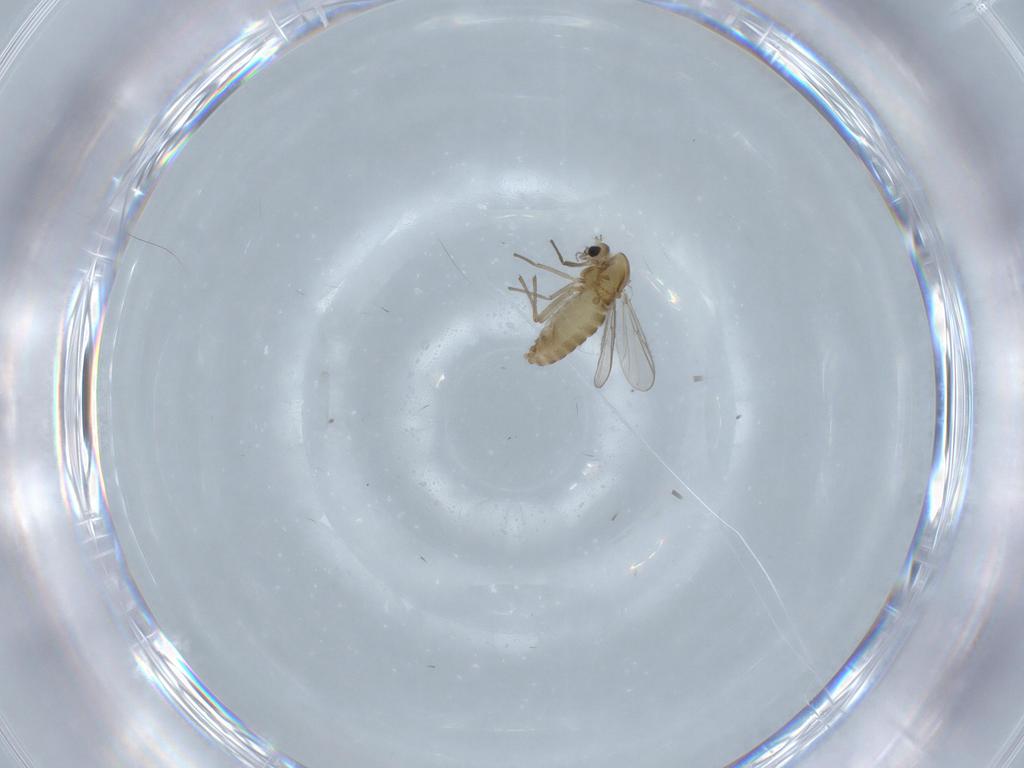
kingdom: Animalia
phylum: Arthropoda
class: Insecta
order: Diptera
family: Chironomidae
